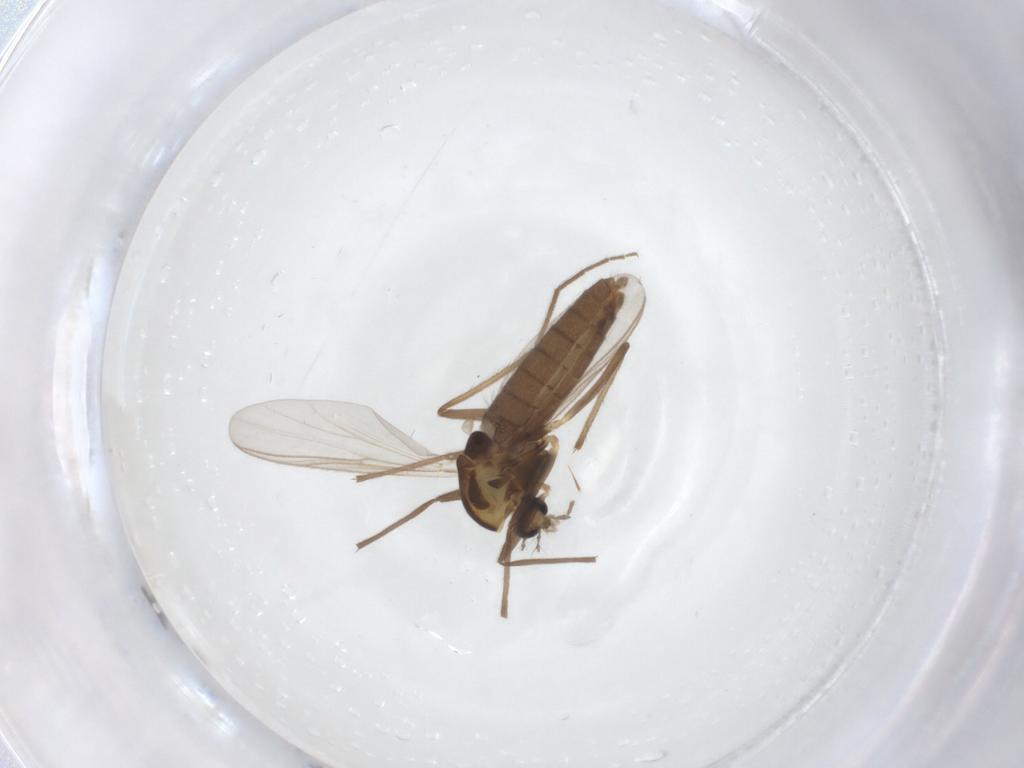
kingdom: Animalia
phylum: Arthropoda
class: Insecta
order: Diptera
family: Chironomidae
